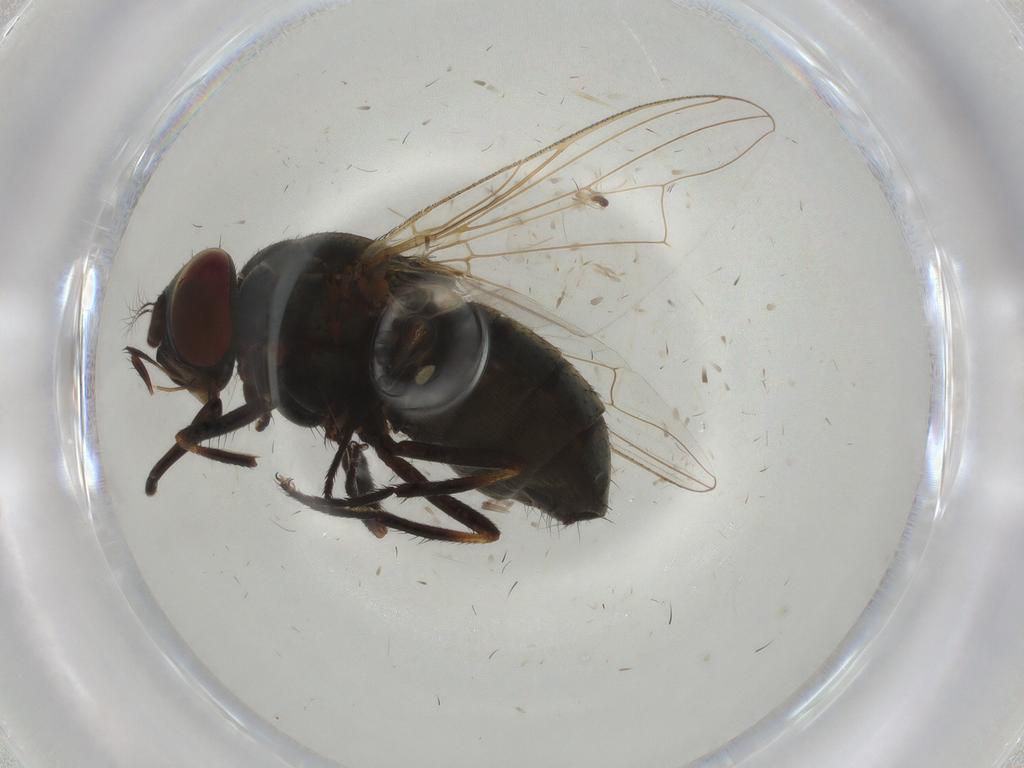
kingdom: Animalia
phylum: Arthropoda
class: Insecta
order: Diptera
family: Muscidae
